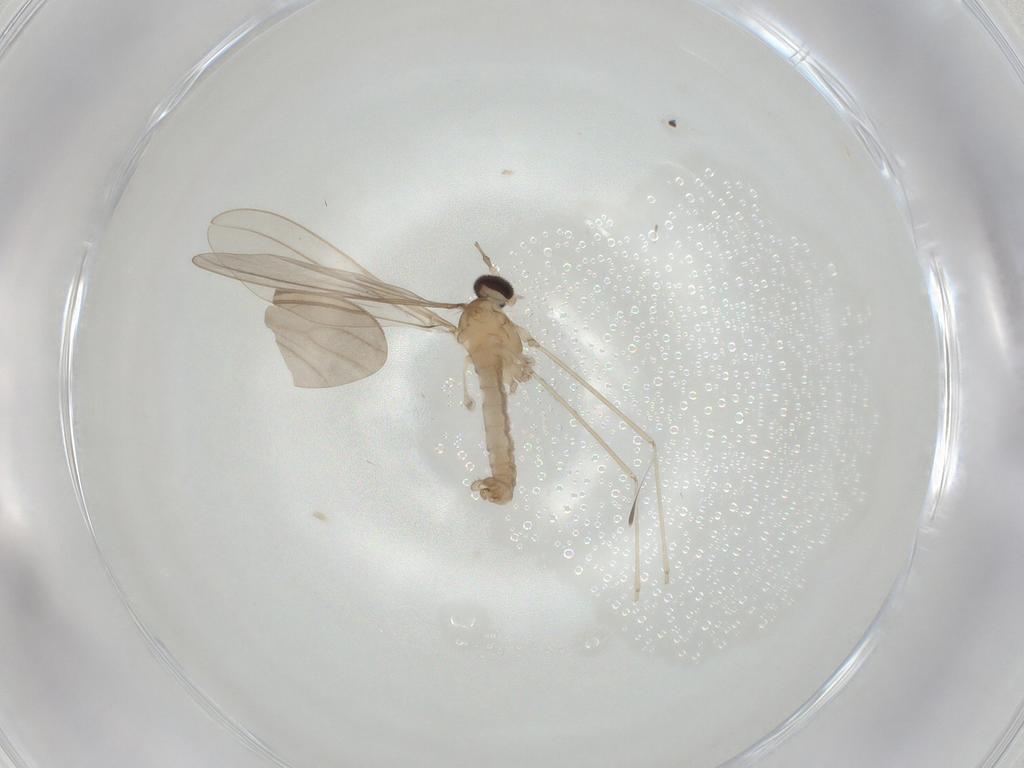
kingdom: Animalia
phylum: Arthropoda
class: Insecta
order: Diptera
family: Cecidomyiidae
